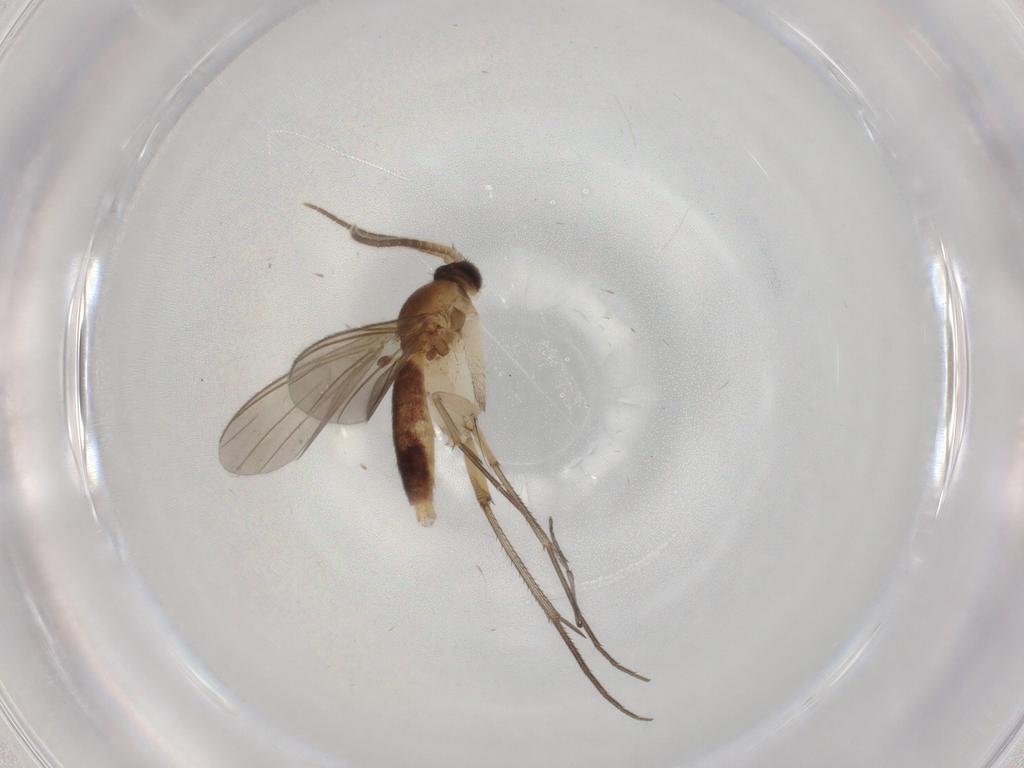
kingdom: Animalia
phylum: Arthropoda
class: Insecta
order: Diptera
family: Mycetophilidae
